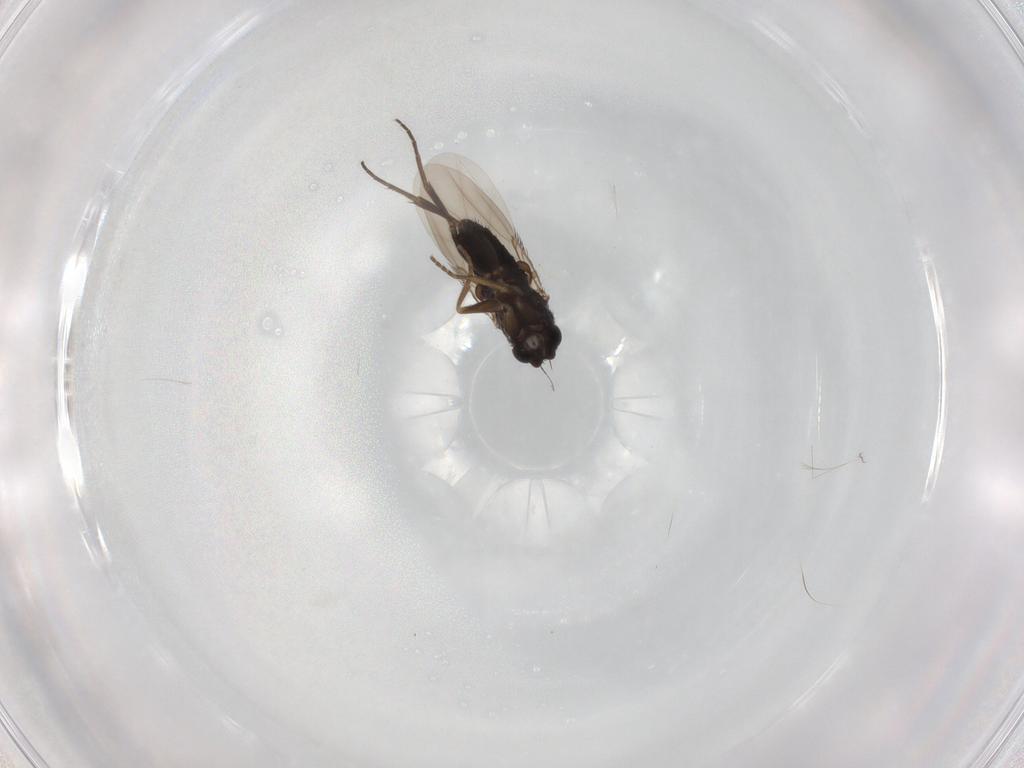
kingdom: Animalia
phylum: Arthropoda
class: Insecta
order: Diptera
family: Phoridae
